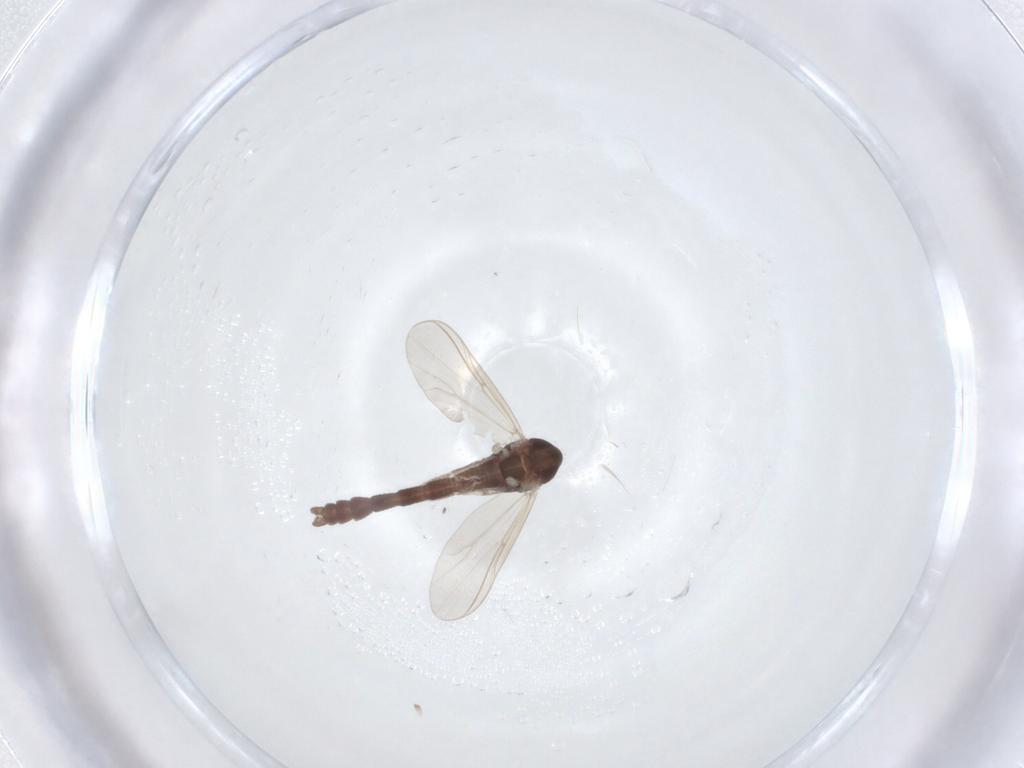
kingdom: Animalia
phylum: Arthropoda
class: Insecta
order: Diptera
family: Chironomidae
